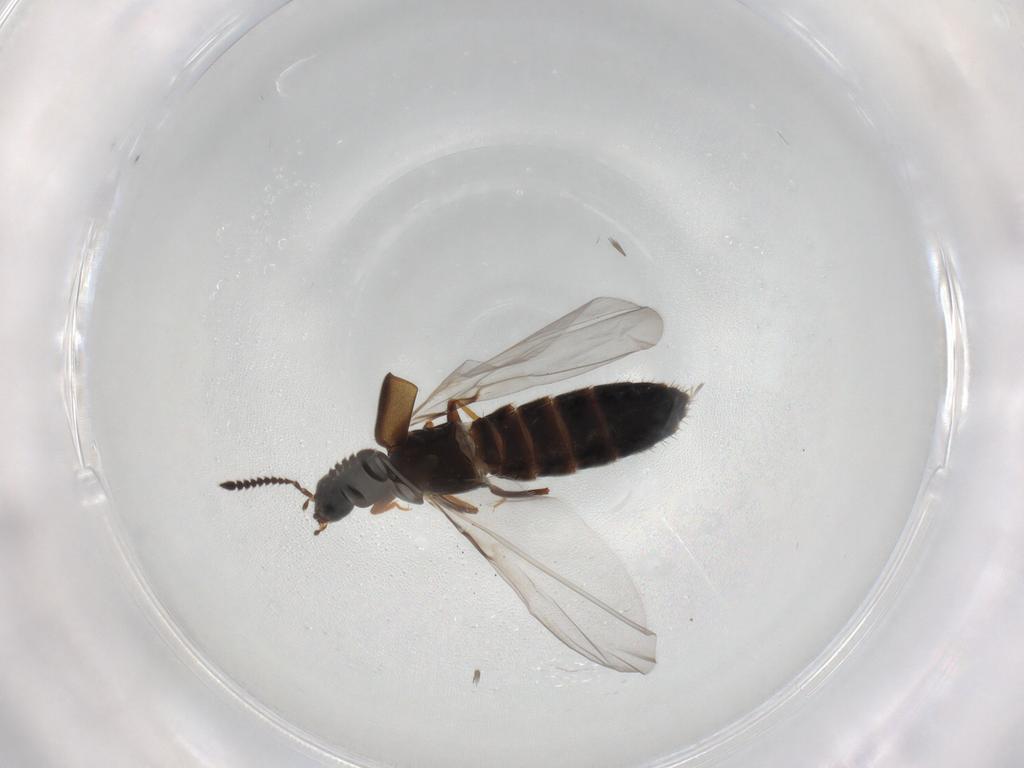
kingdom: Animalia
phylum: Arthropoda
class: Insecta
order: Coleoptera
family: Staphylinidae
